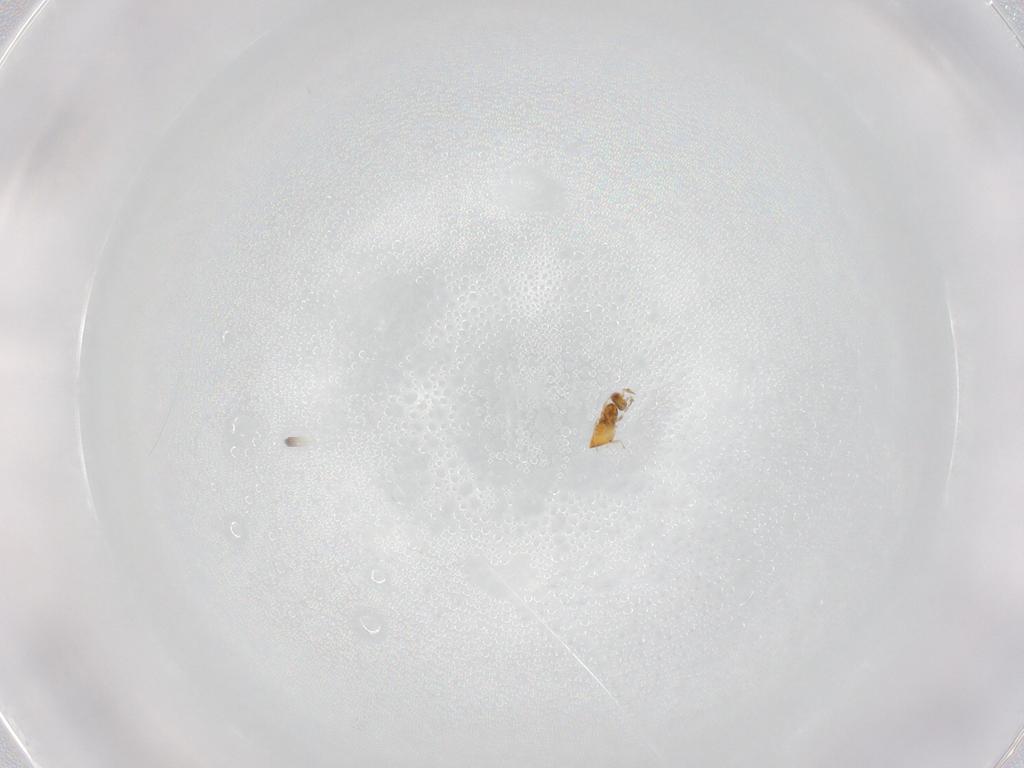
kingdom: Animalia
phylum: Arthropoda
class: Insecta
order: Hymenoptera
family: Trichogrammatidae
